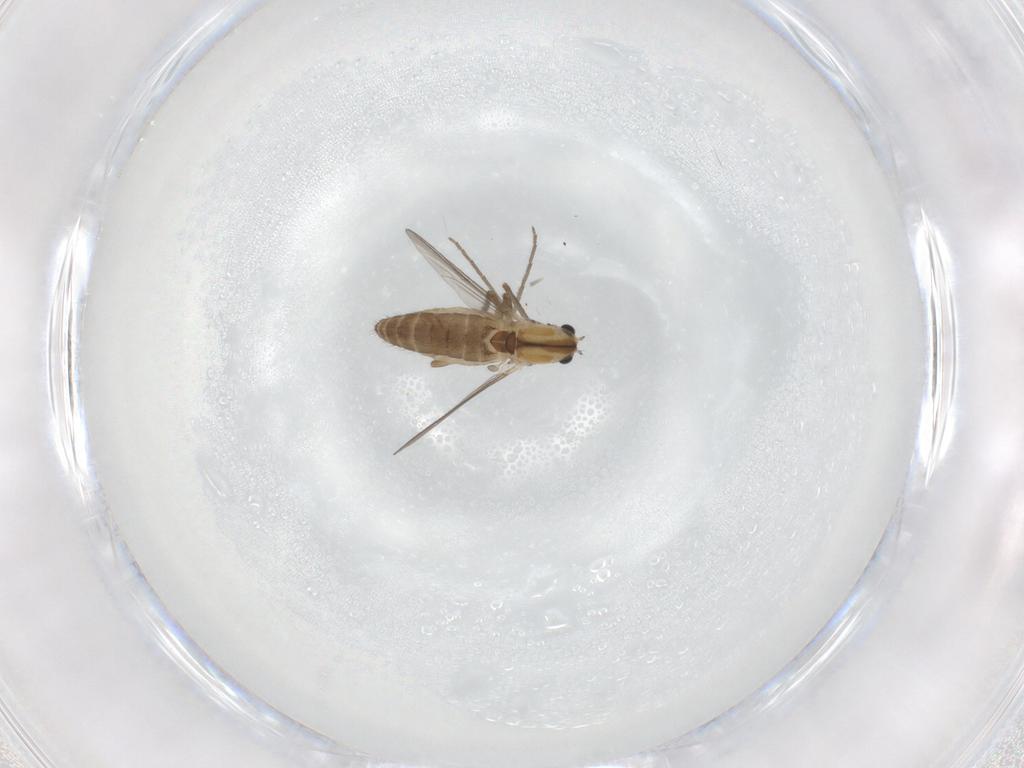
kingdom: Animalia
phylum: Arthropoda
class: Insecta
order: Diptera
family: Chironomidae
